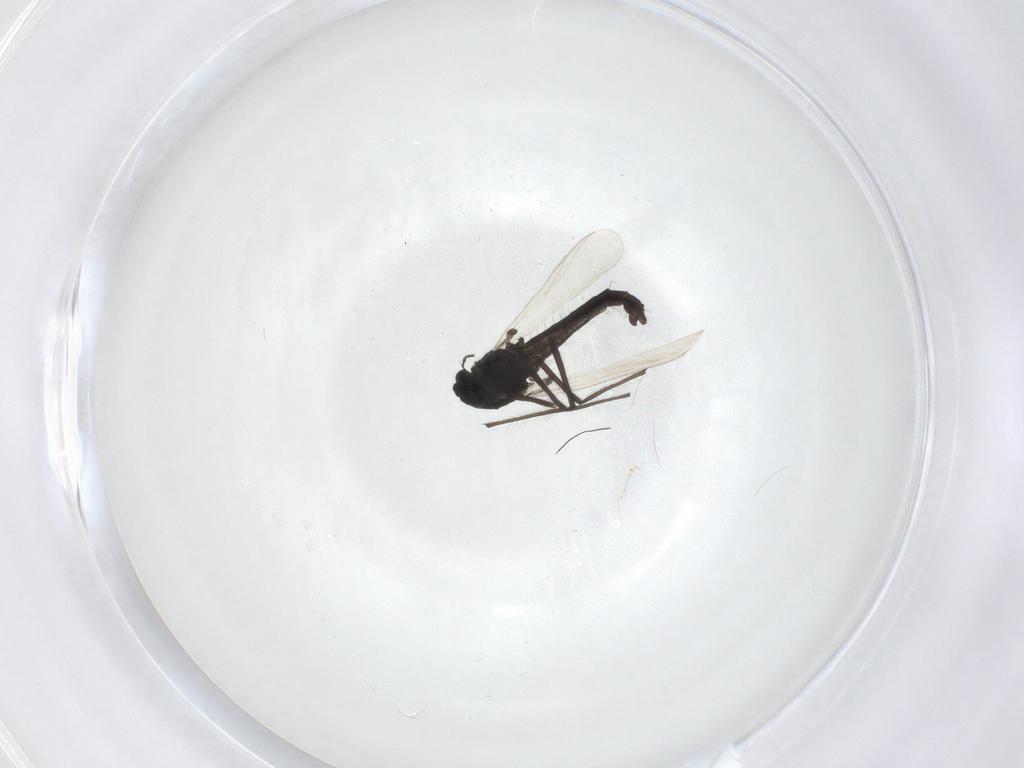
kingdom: Animalia
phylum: Arthropoda
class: Insecta
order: Diptera
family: Chironomidae
